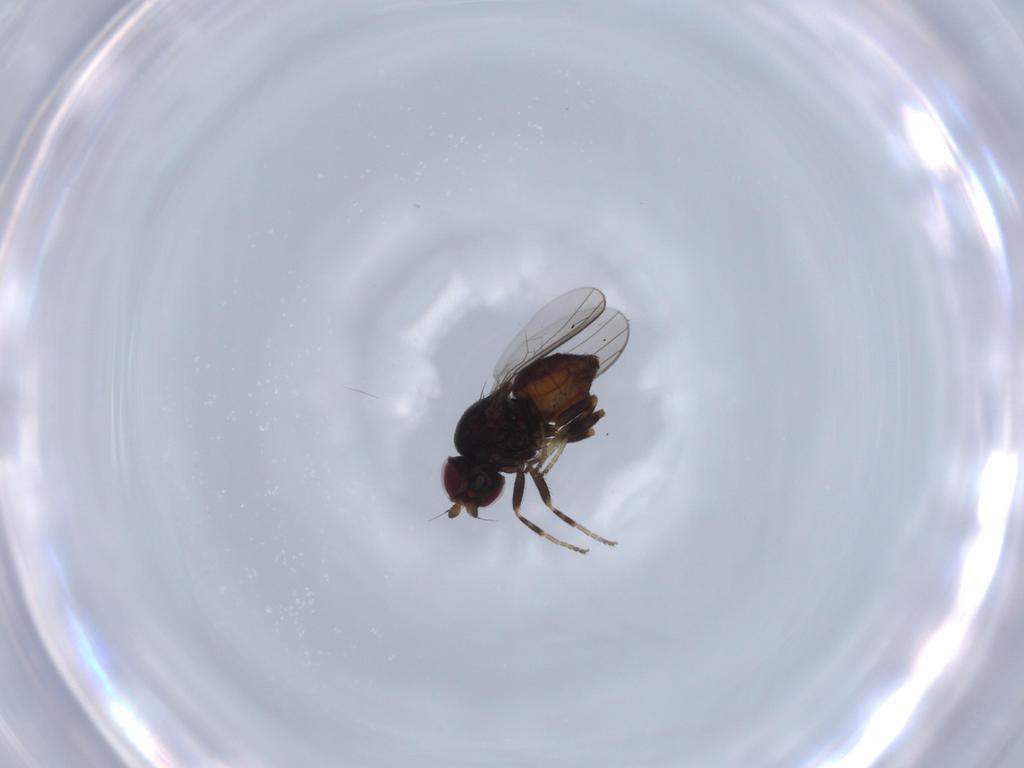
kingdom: Animalia
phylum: Arthropoda
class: Insecta
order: Diptera
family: Chloropidae
